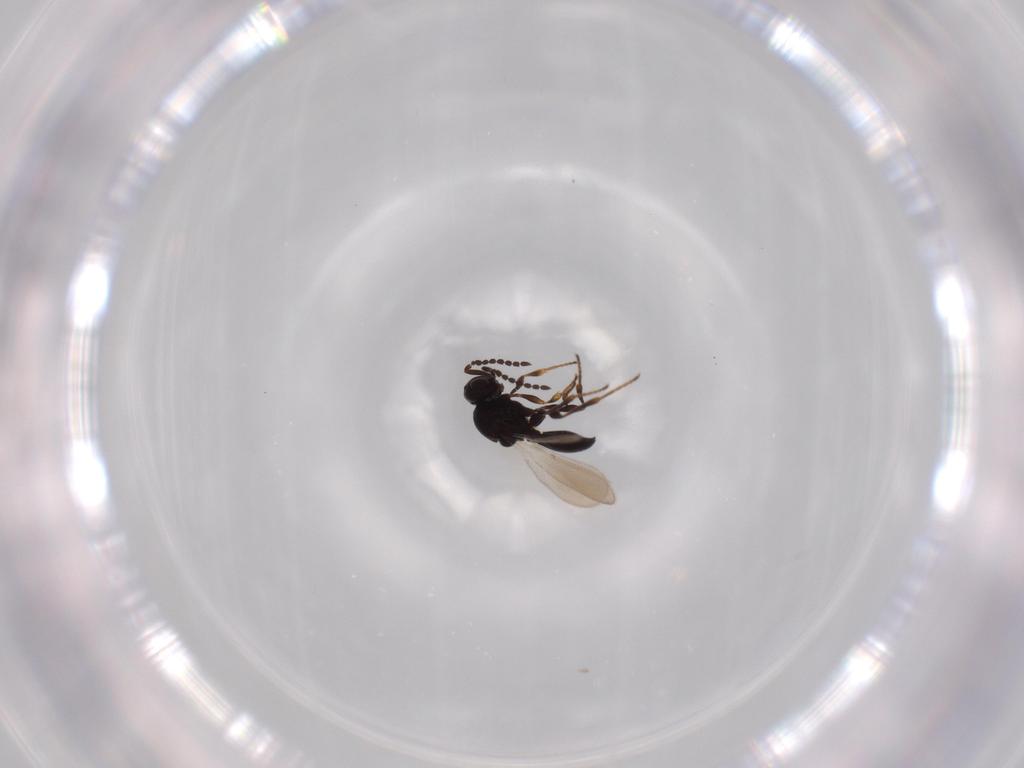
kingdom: Animalia
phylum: Arthropoda
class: Insecta
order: Hymenoptera
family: Platygastridae
